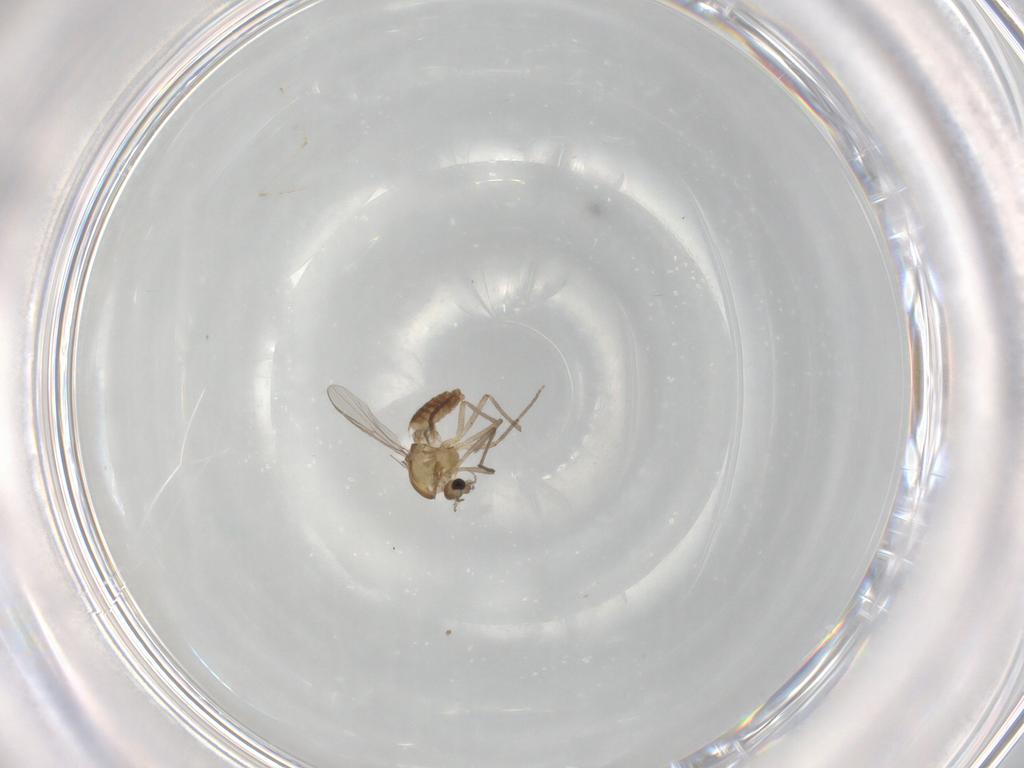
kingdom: Animalia
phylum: Arthropoda
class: Insecta
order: Diptera
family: Chironomidae
